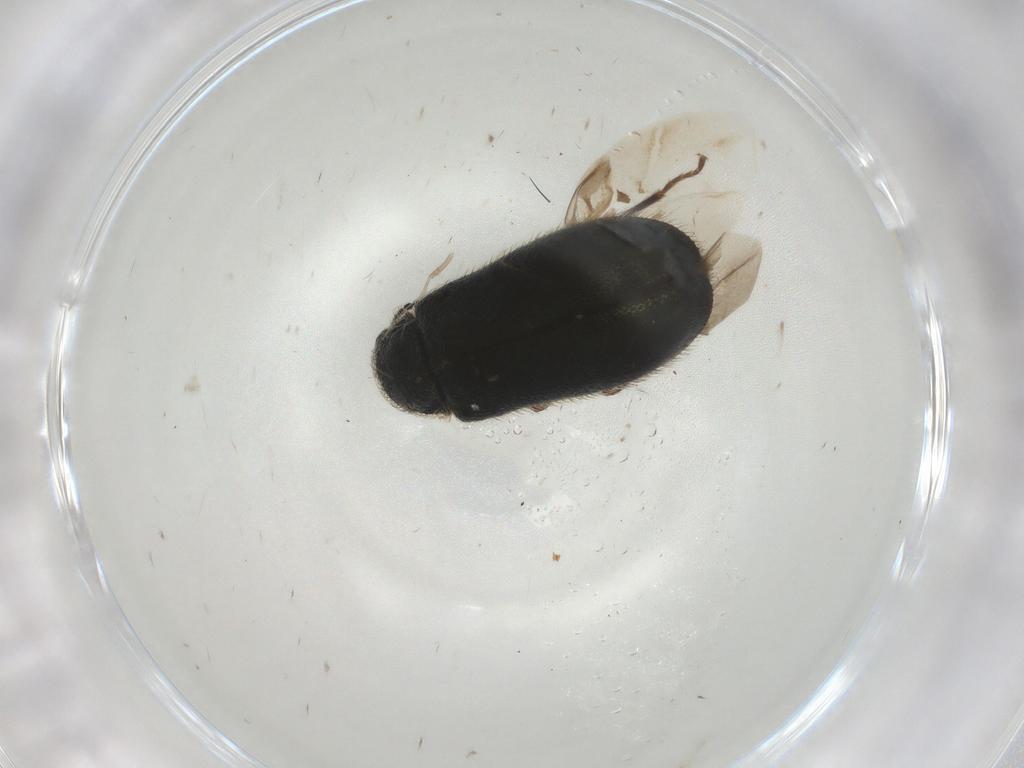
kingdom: Animalia
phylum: Arthropoda
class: Insecta
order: Coleoptera
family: Melyridae
